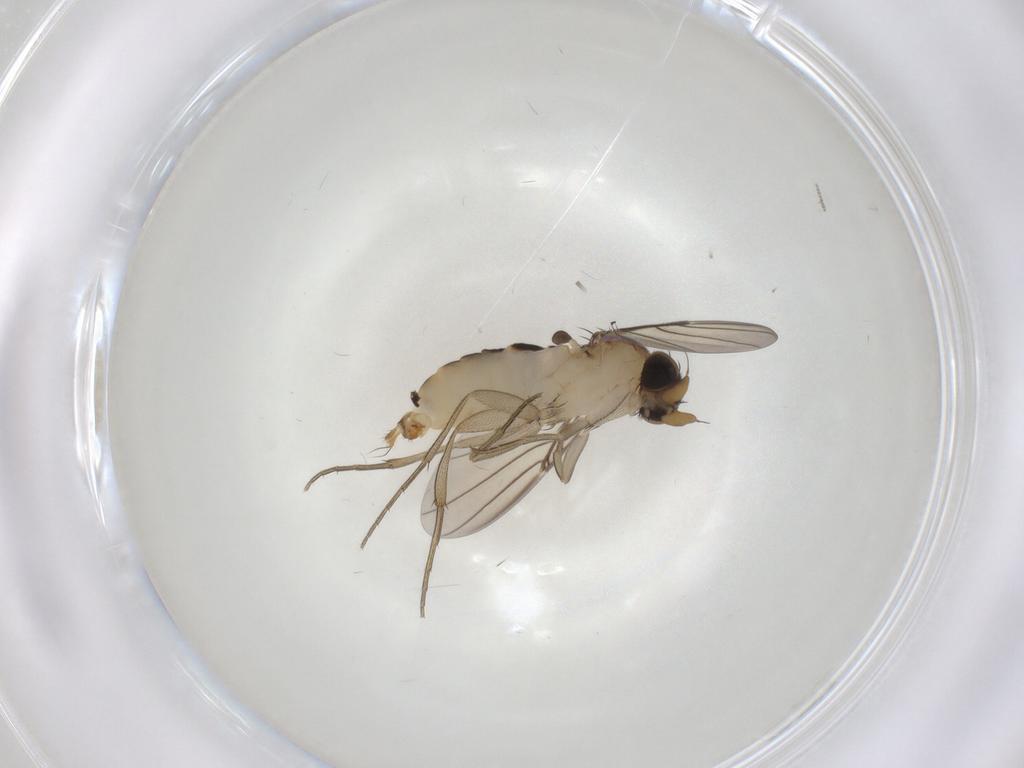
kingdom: Animalia
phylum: Arthropoda
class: Insecta
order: Diptera
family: Phoridae
